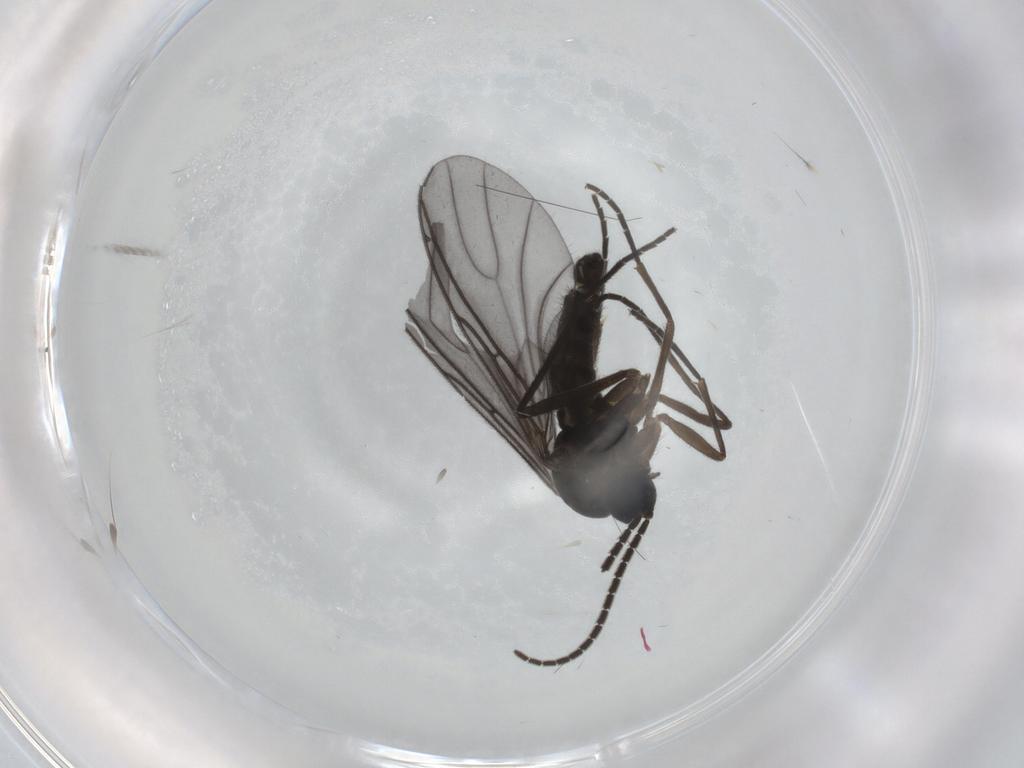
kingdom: Animalia
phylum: Arthropoda
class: Insecta
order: Diptera
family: Sciaridae
